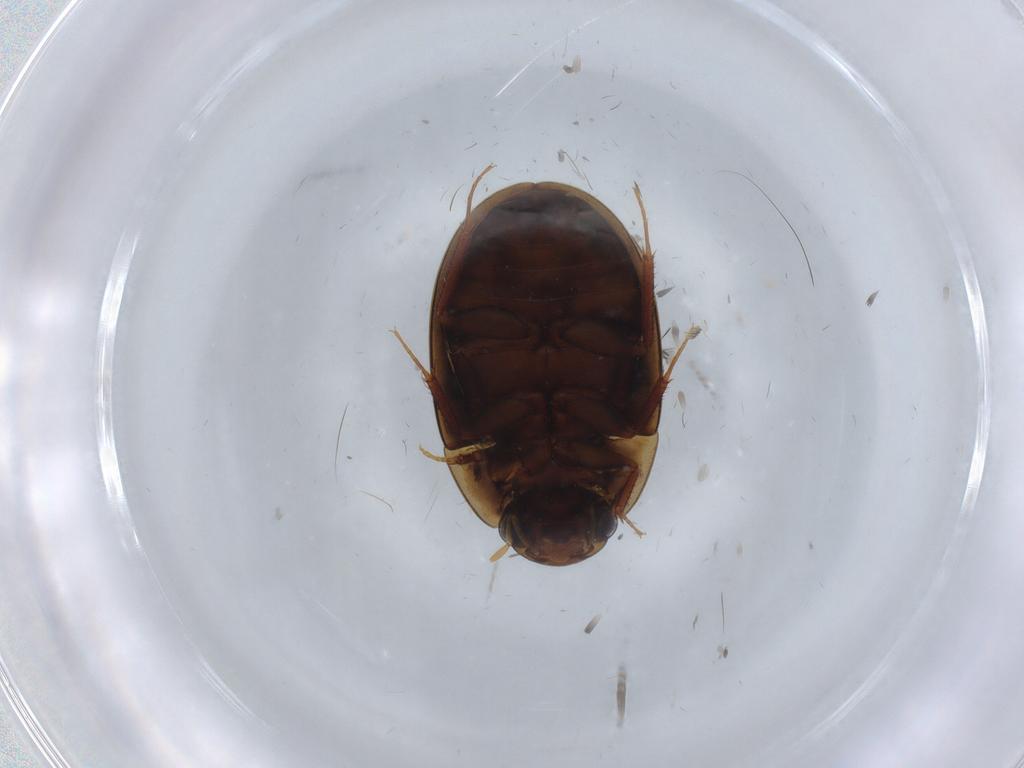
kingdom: Animalia
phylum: Arthropoda
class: Insecta
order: Coleoptera
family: Hydrophilidae
